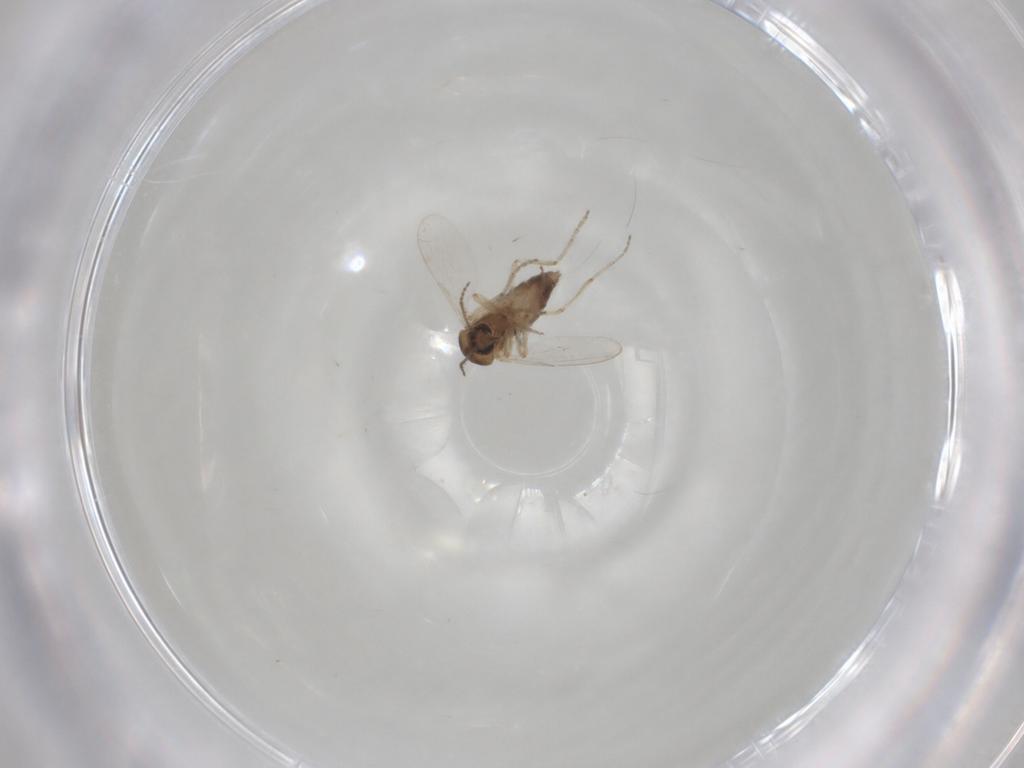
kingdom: Animalia
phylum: Arthropoda
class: Insecta
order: Diptera
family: Ceratopogonidae
